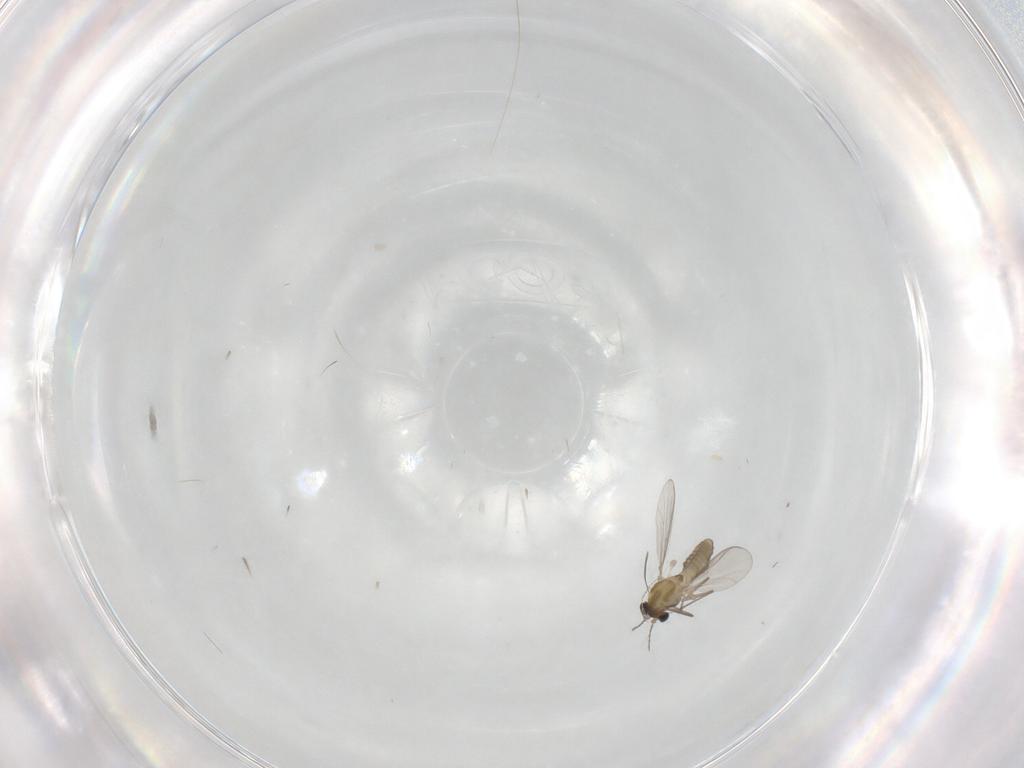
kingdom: Animalia
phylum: Arthropoda
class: Insecta
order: Diptera
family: Chironomidae
